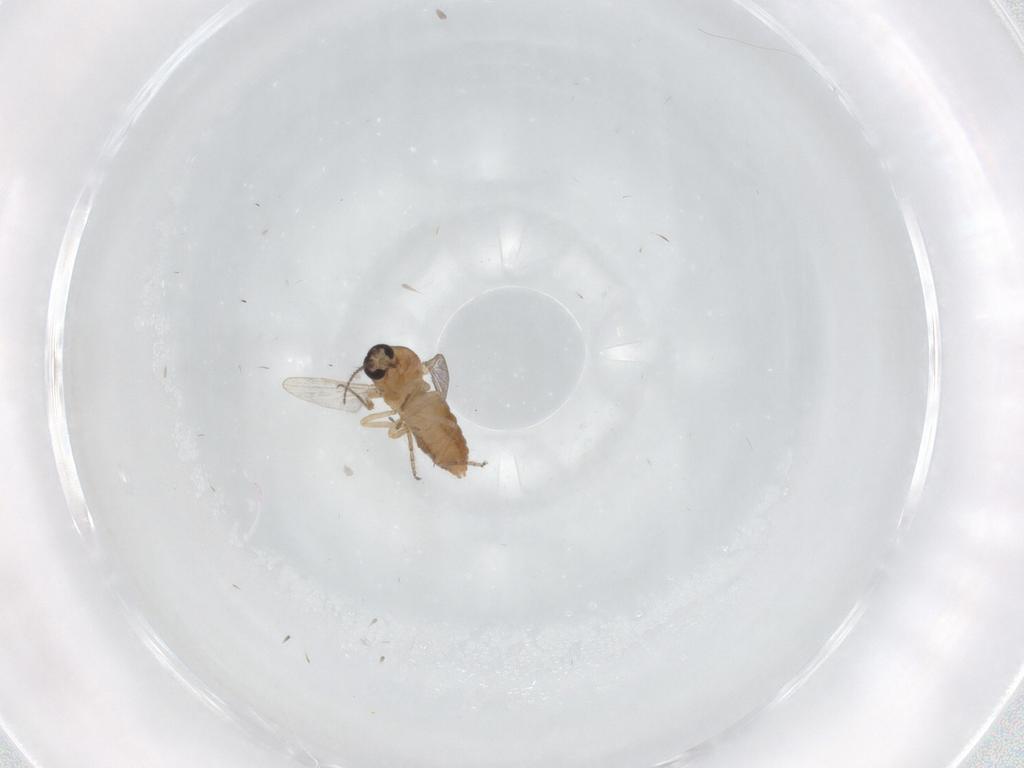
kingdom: Animalia
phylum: Arthropoda
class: Insecta
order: Diptera
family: Ceratopogonidae
